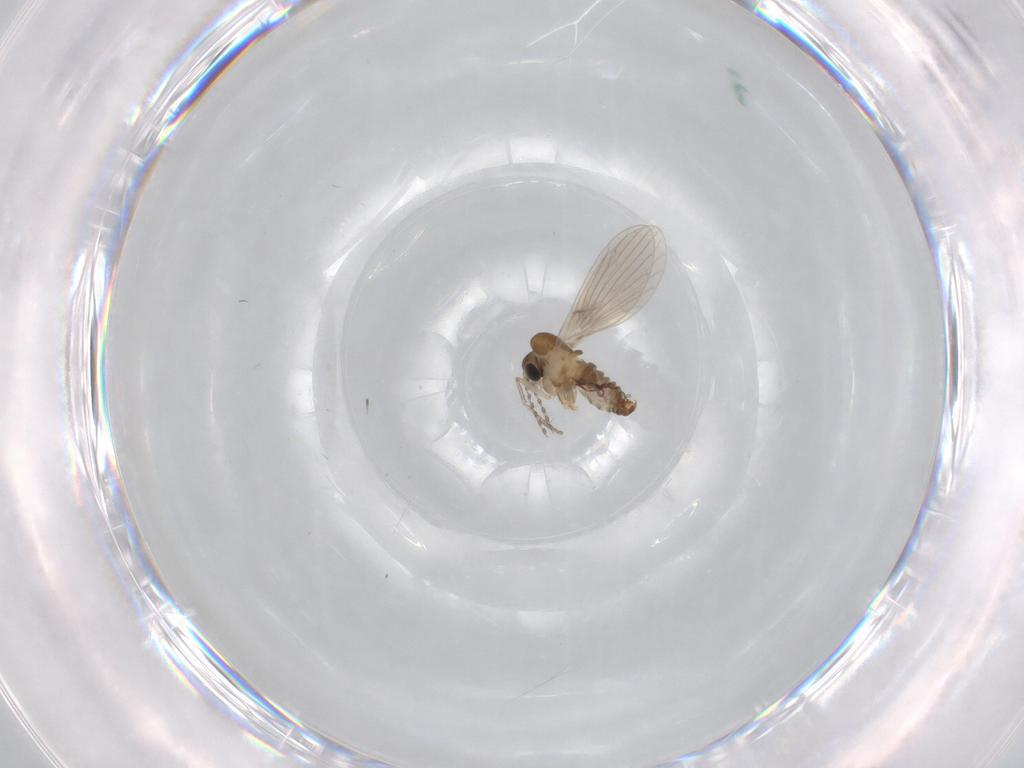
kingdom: Animalia
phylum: Arthropoda
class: Insecta
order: Diptera
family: Psychodidae
